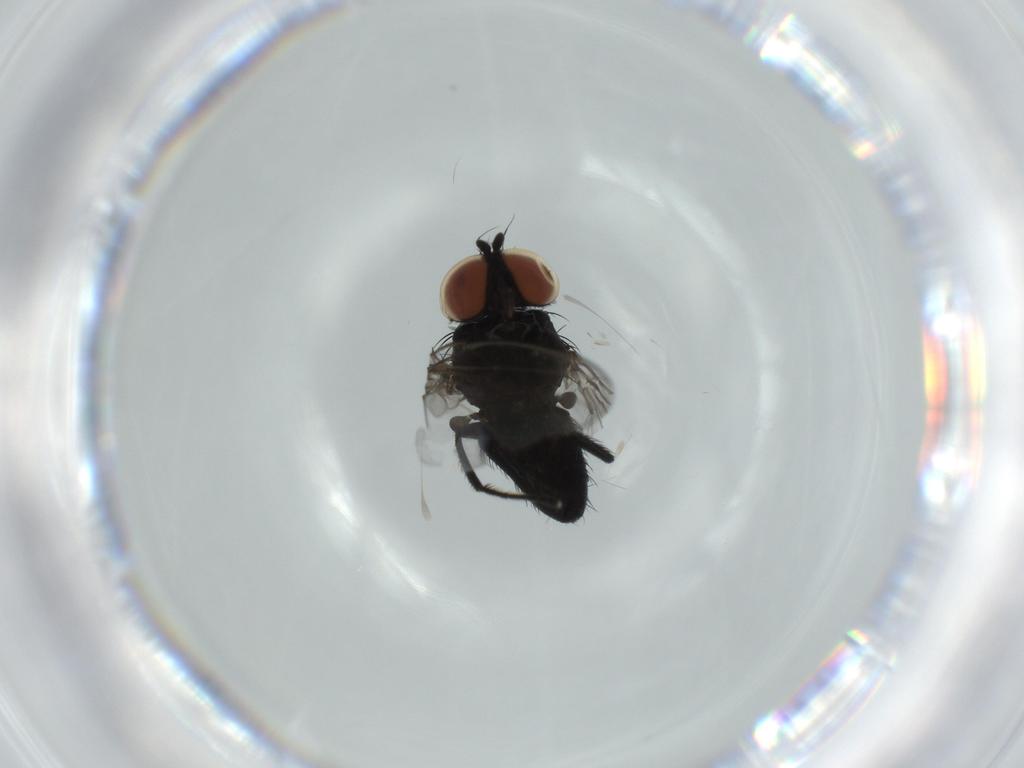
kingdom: Animalia
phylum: Arthropoda
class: Insecta
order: Diptera
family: Milichiidae
